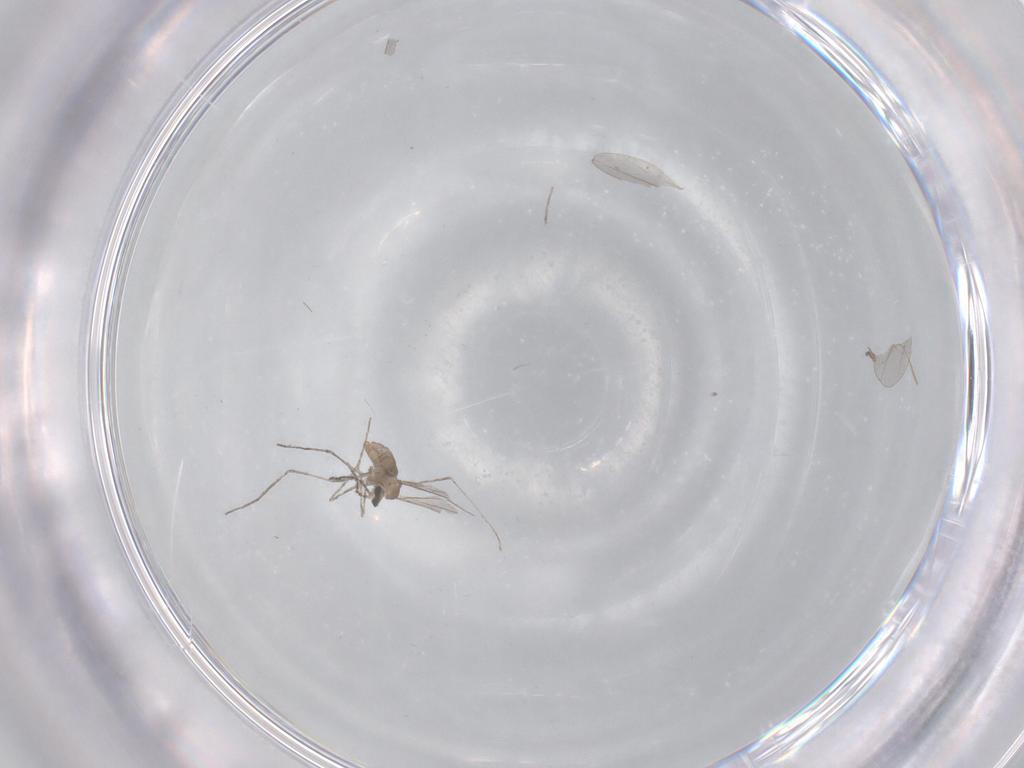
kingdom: Animalia
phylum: Arthropoda
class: Insecta
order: Diptera
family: Cecidomyiidae
